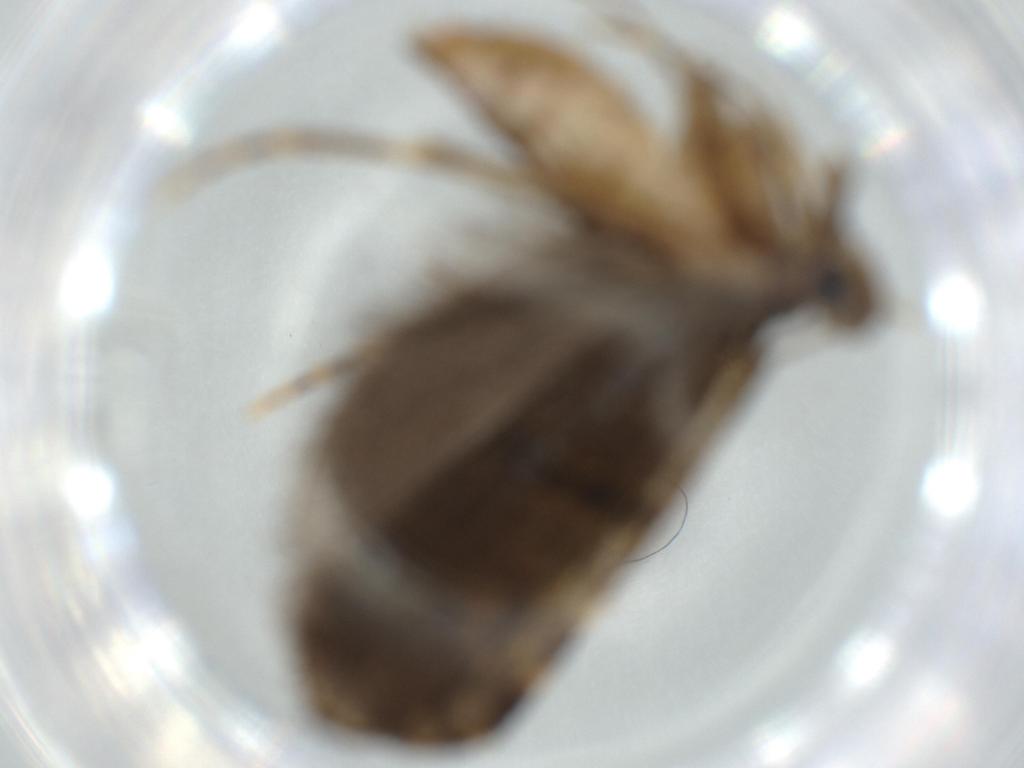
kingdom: Animalia
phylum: Arthropoda
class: Insecta
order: Lepidoptera
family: Autostichidae
